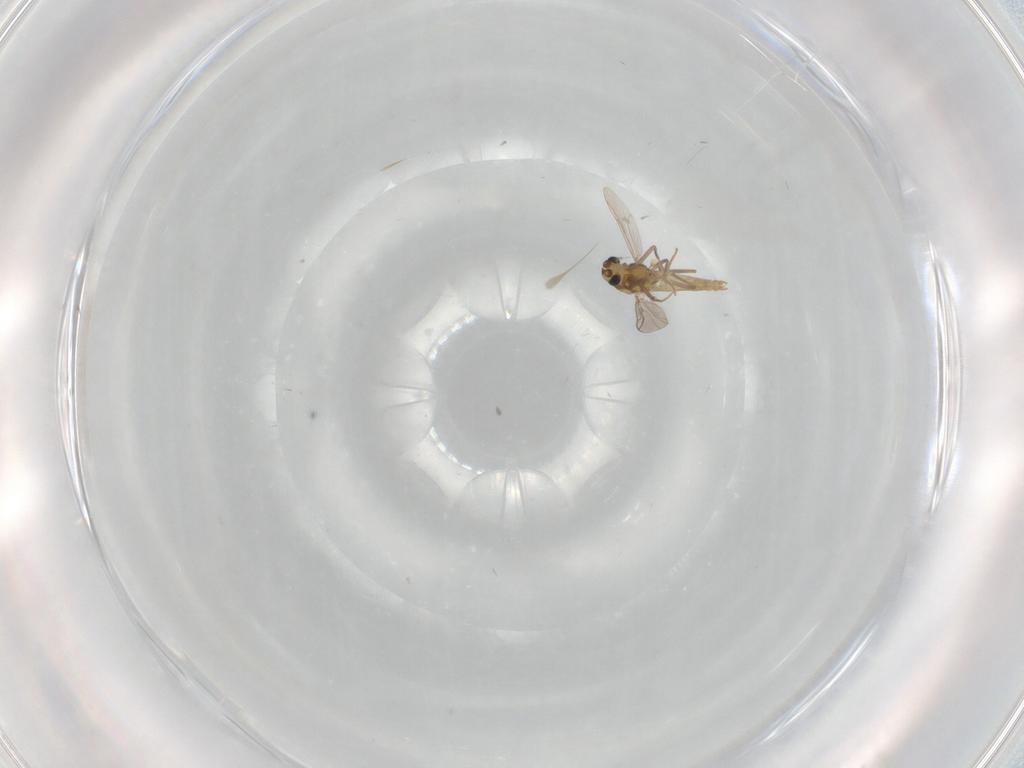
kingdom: Animalia
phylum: Arthropoda
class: Insecta
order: Diptera
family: Chironomidae
